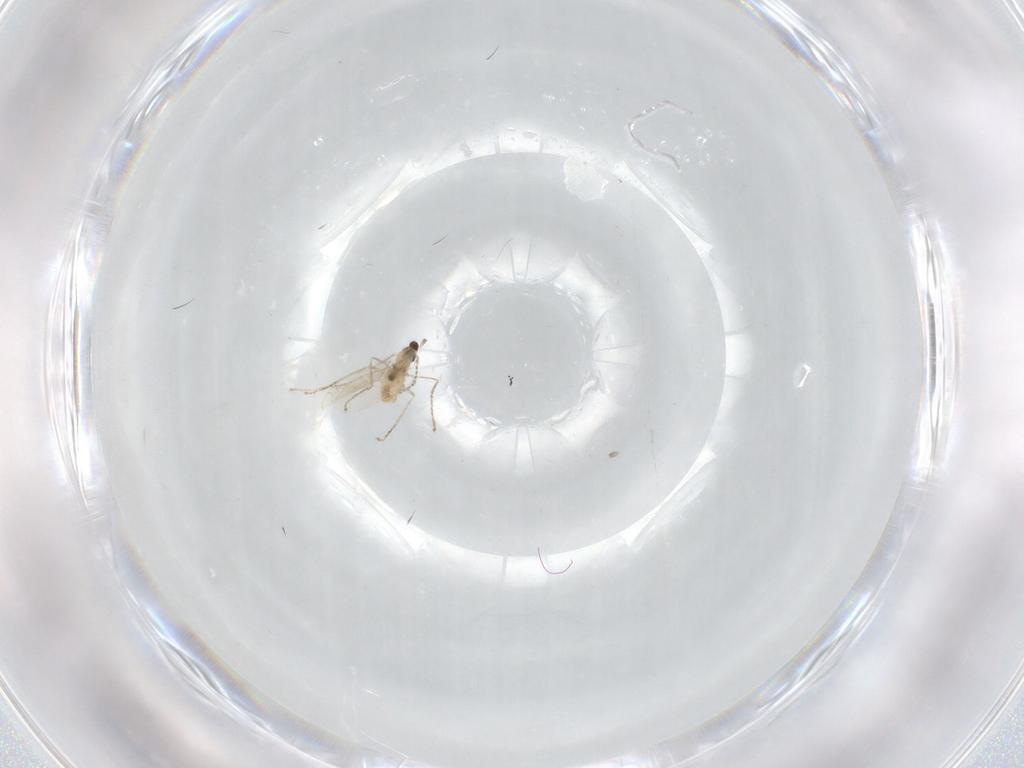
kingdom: Animalia
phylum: Arthropoda
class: Insecta
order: Diptera
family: Cecidomyiidae
